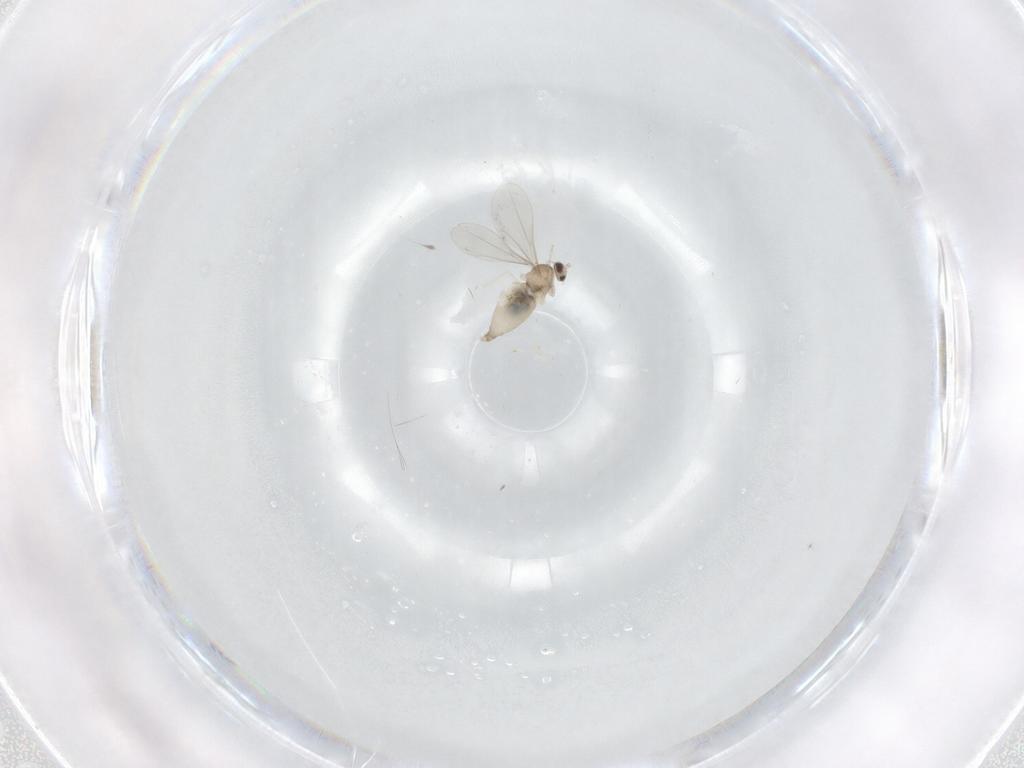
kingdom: Animalia
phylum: Arthropoda
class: Insecta
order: Diptera
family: Cecidomyiidae
